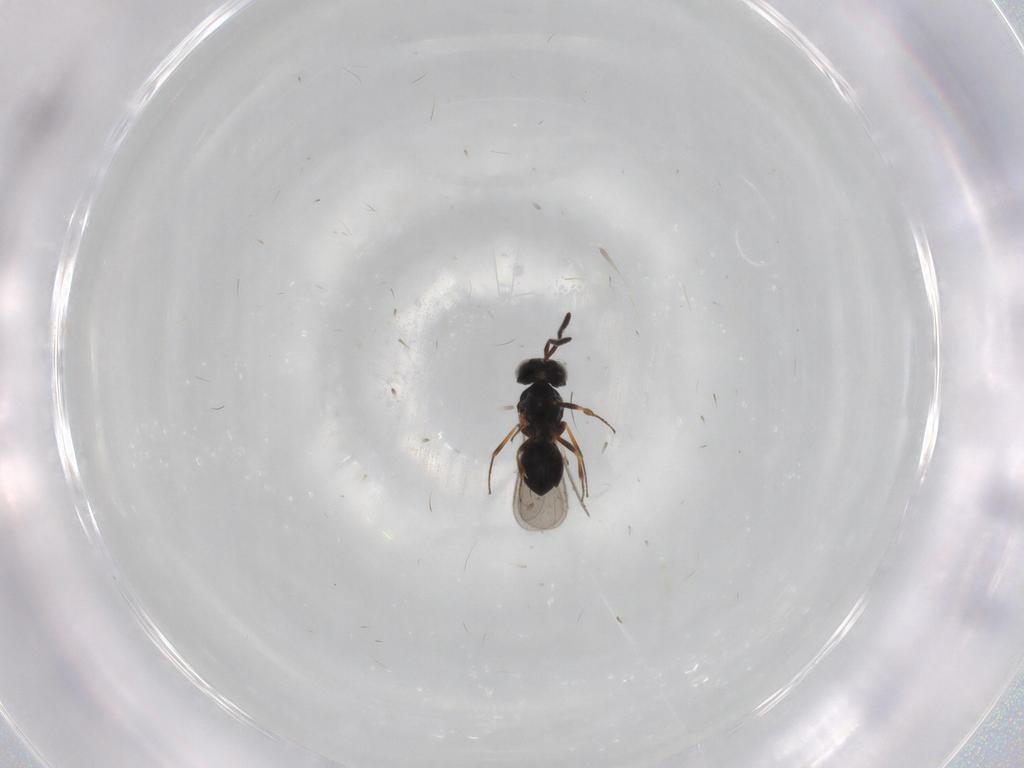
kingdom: Animalia
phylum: Arthropoda
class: Insecta
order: Hymenoptera
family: Scelionidae
